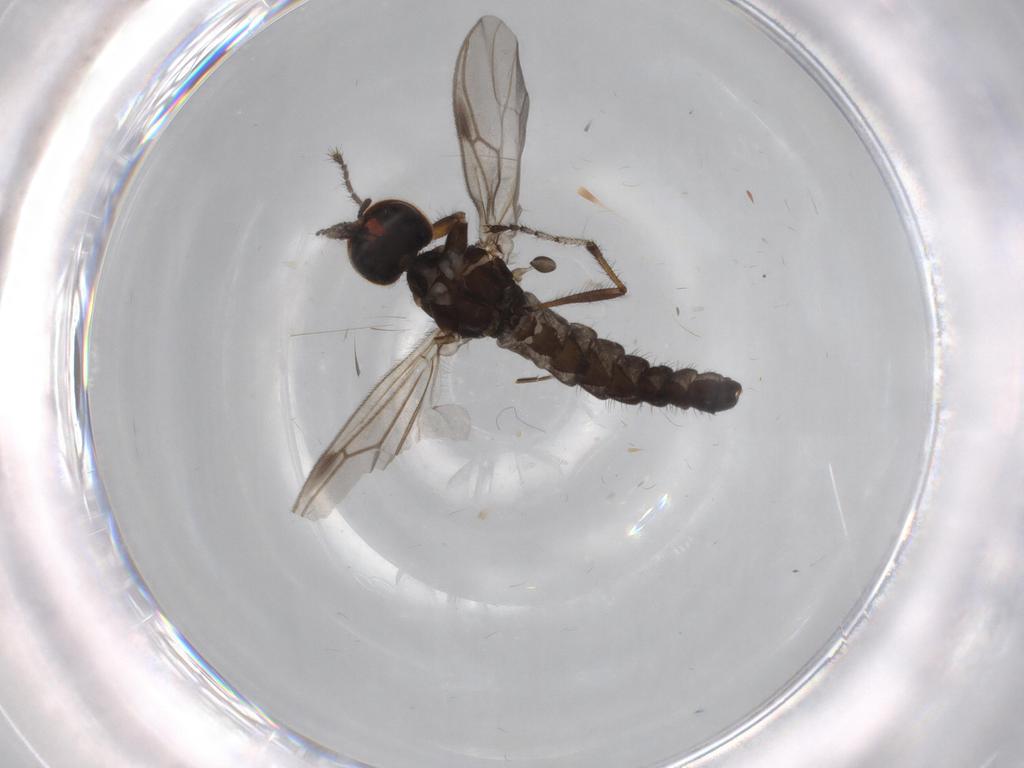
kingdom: Animalia
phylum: Arthropoda
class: Insecta
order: Diptera
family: Bibionidae
